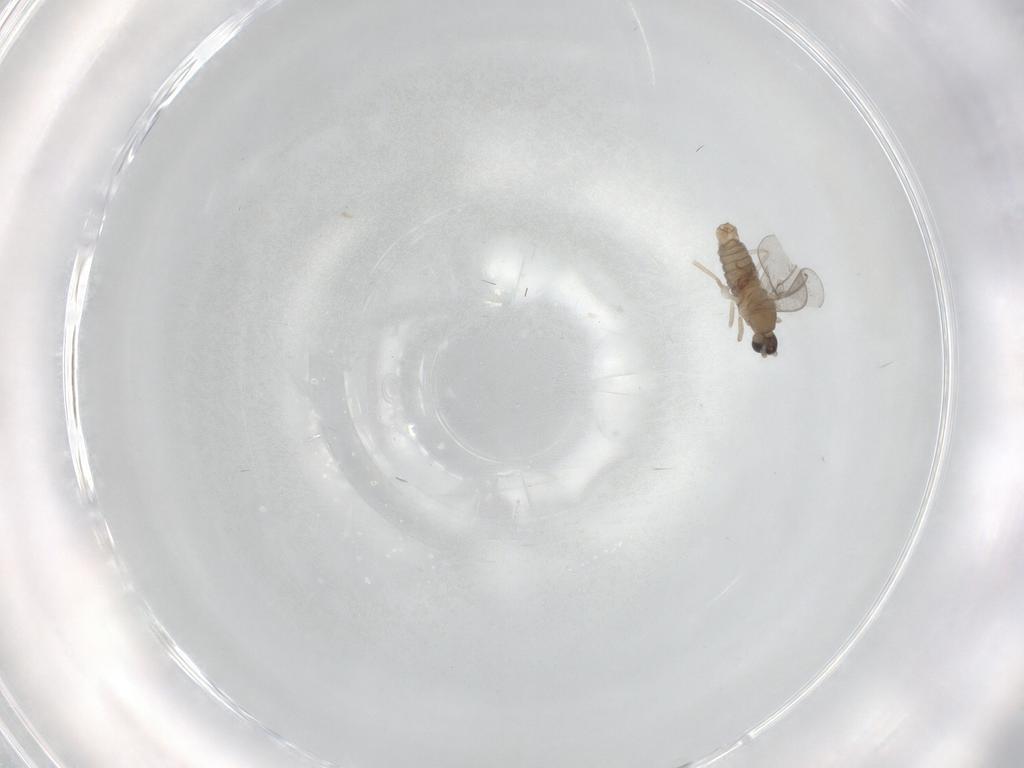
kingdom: Animalia
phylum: Arthropoda
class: Insecta
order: Diptera
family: Cecidomyiidae
